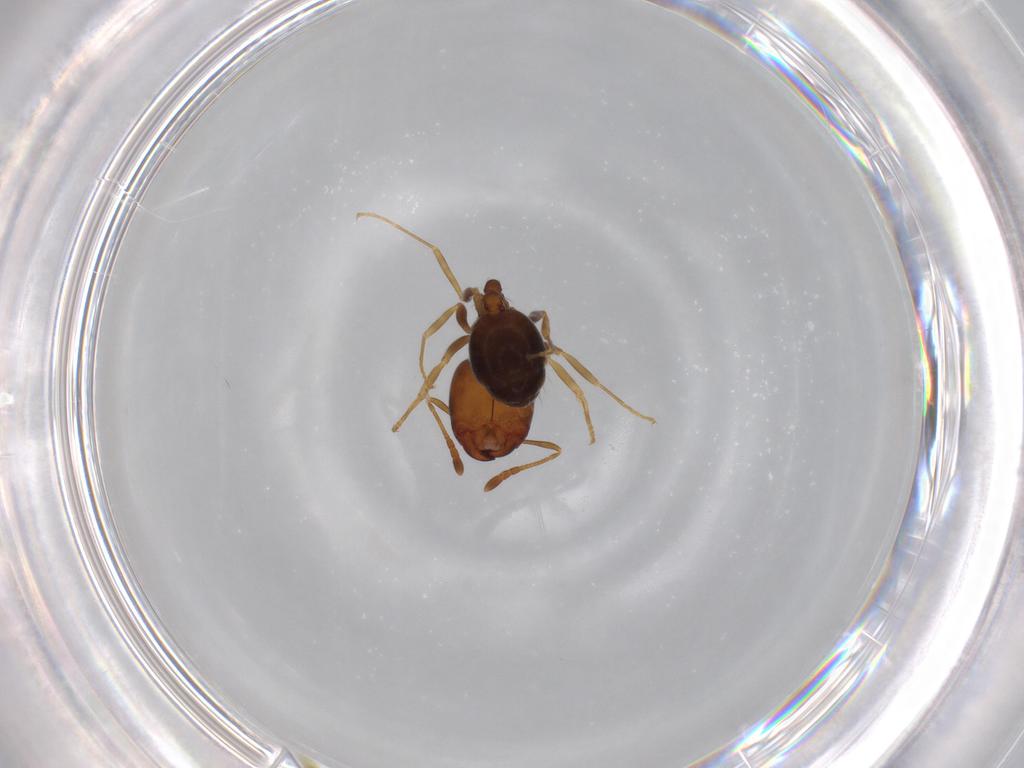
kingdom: Animalia
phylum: Arthropoda
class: Insecta
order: Hymenoptera
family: Formicidae
